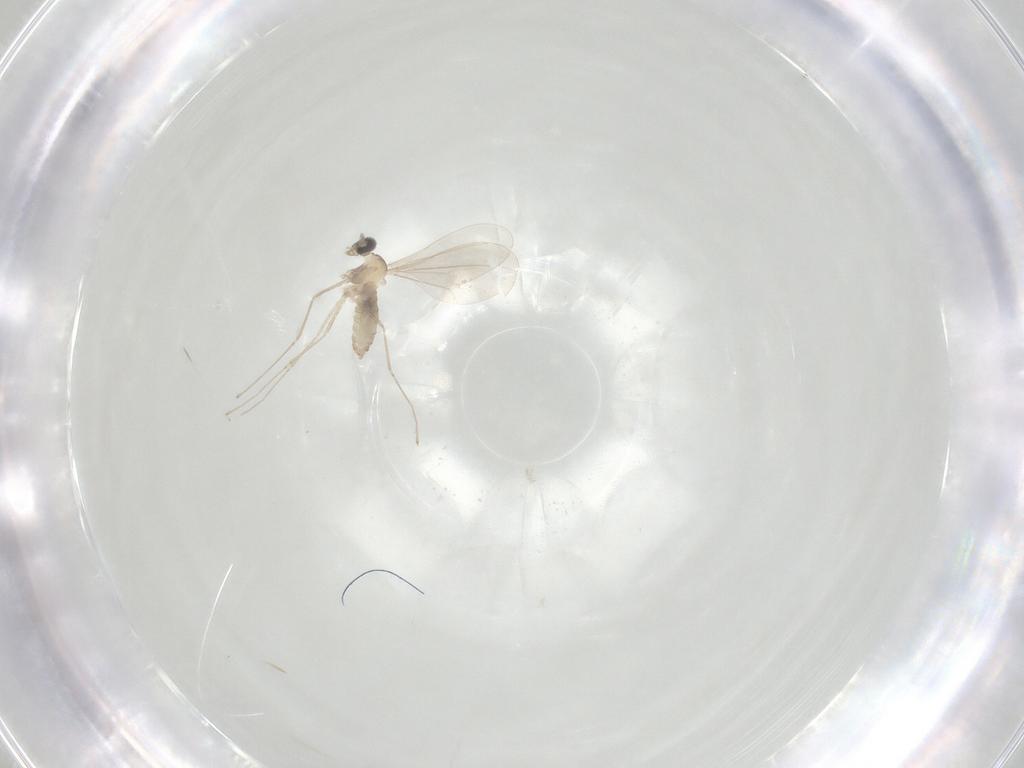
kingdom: Animalia
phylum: Arthropoda
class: Insecta
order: Diptera
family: Cecidomyiidae
